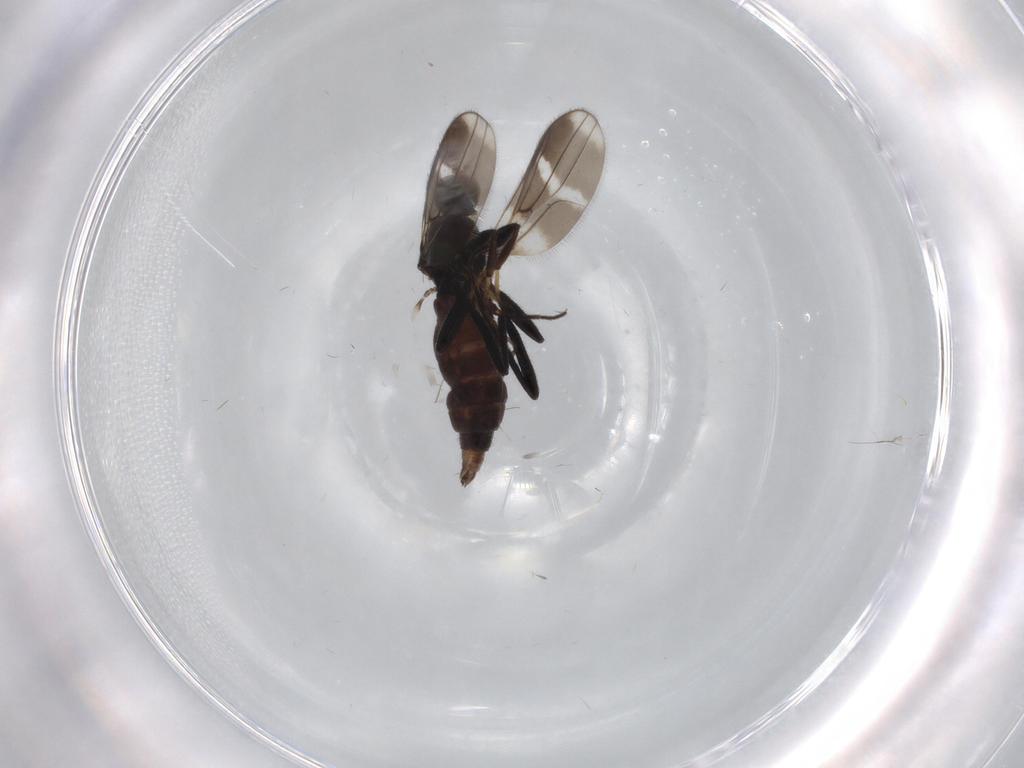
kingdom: Animalia
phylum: Arthropoda
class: Insecta
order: Diptera
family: Hybotidae
